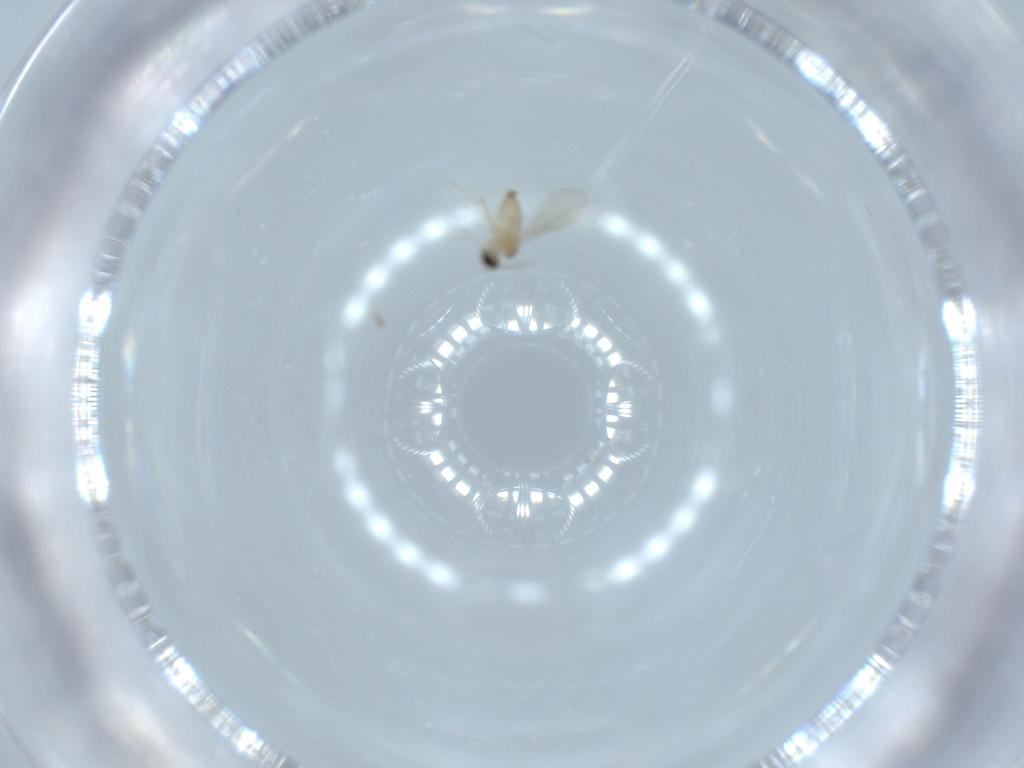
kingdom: Animalia
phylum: Arthropoda
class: Insecta
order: Diptera
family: Cecidomyiidae
